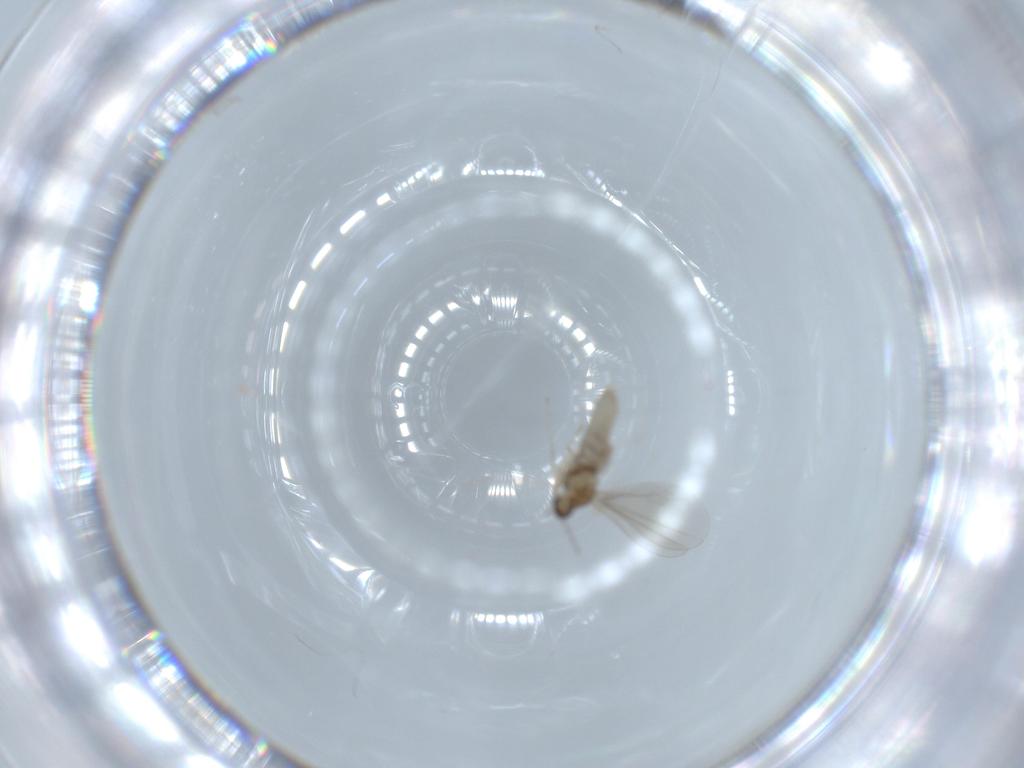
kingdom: Animalia
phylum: Arthropoda
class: Insecta
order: Diptera
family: Cecidomyiidae
